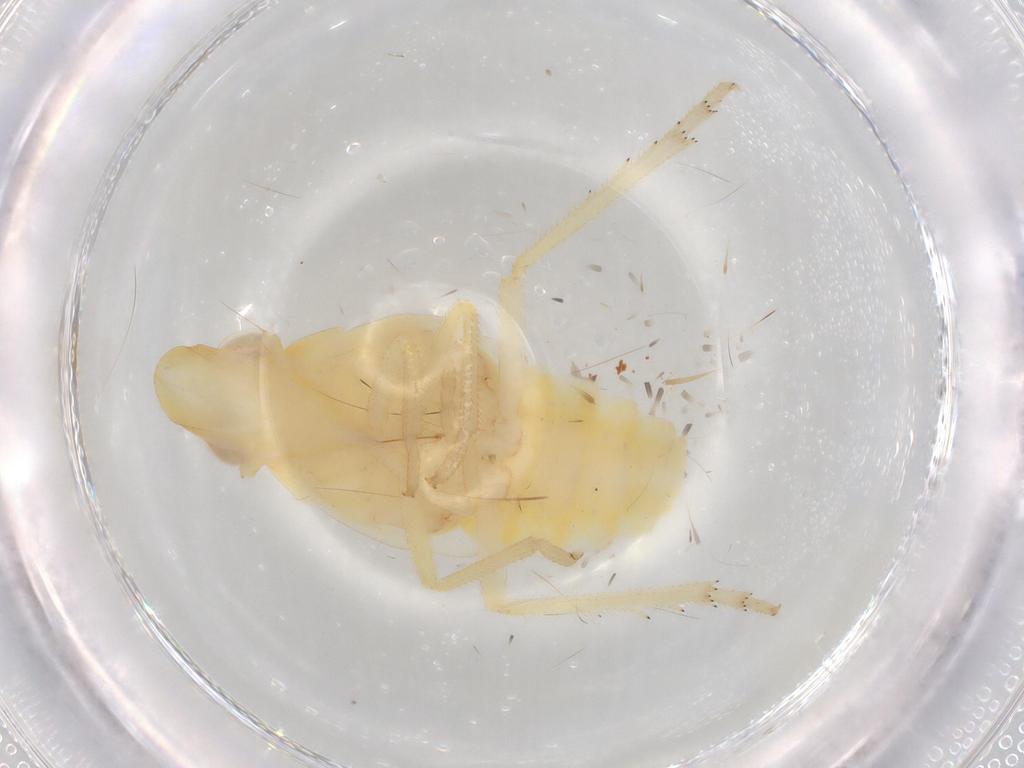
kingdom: Animalia
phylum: Arthropoda
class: Insecta
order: Hemiptera
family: Tropiduchidae
